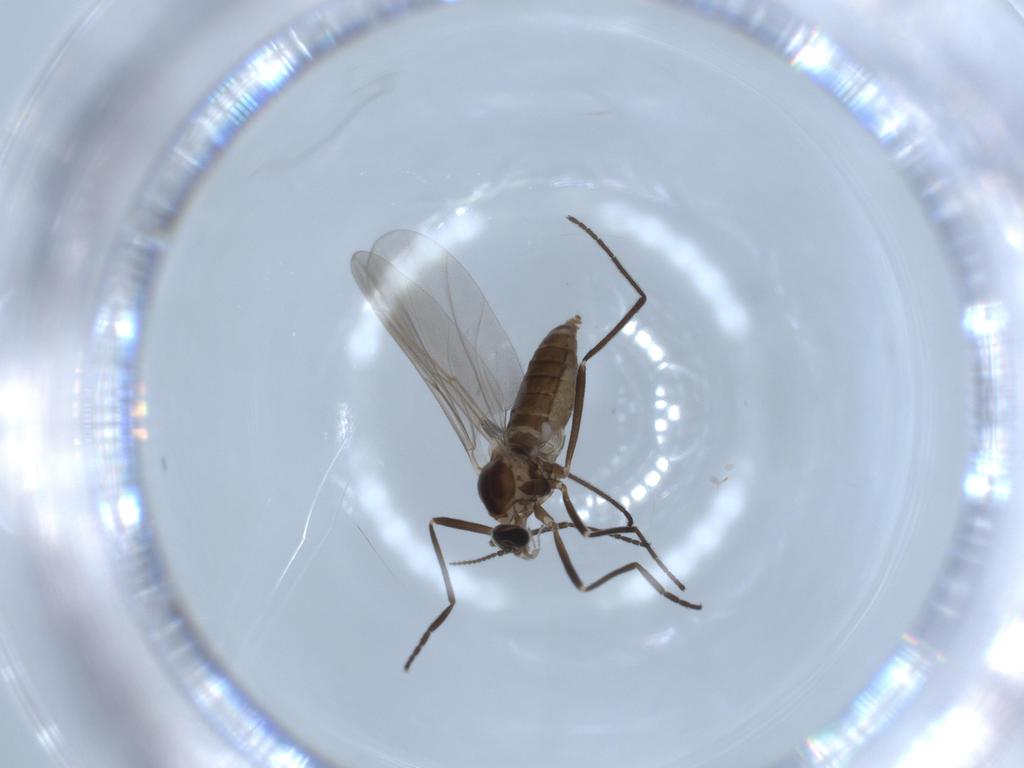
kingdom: Animalia
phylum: Arthropoda
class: Insecta
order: Diptera
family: Cecidomyiidae
